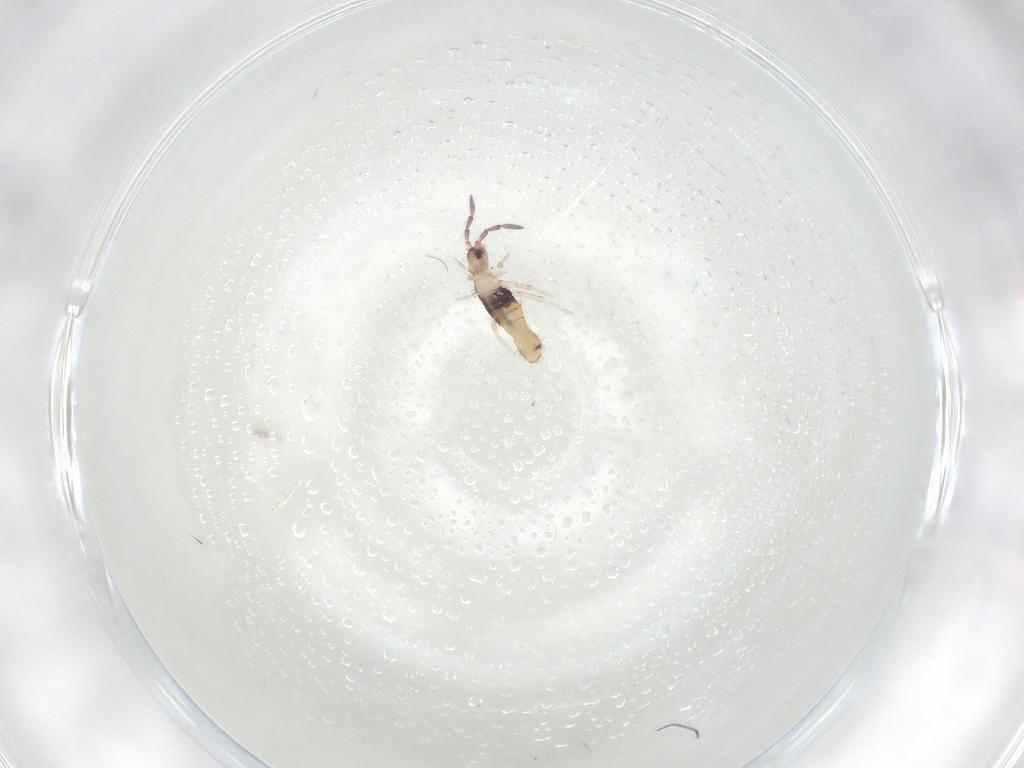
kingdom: Animalia
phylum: Arthropoda
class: Collembola
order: Entomobryomorpha
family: Entomobryidae
